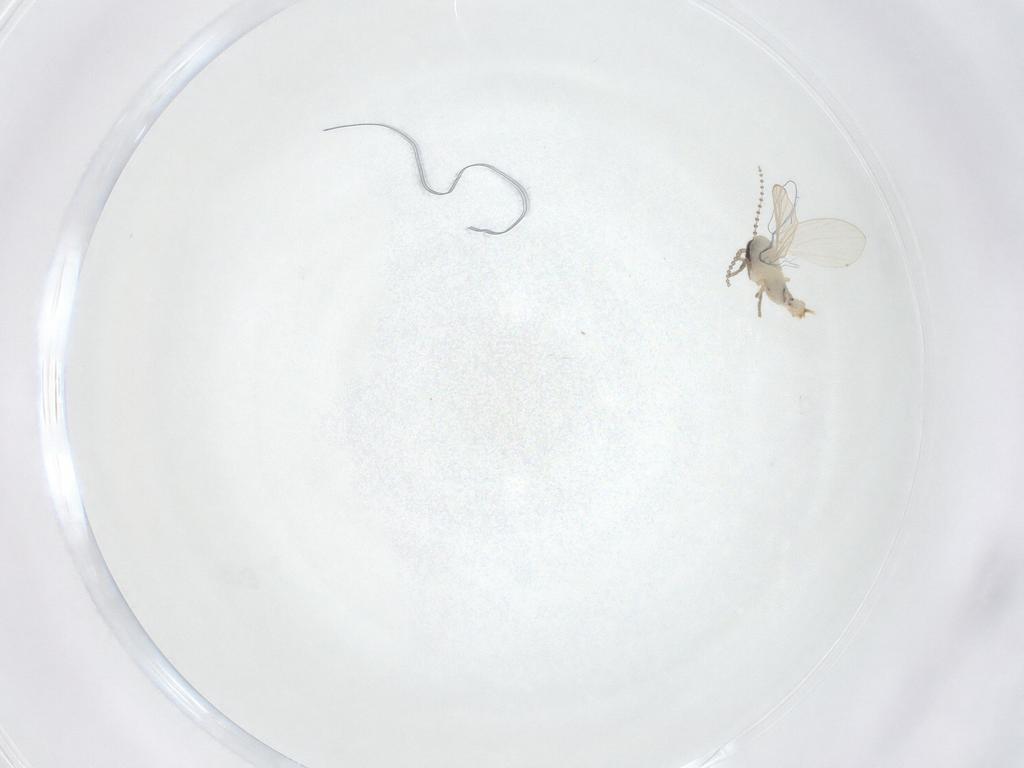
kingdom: Animalia
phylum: Arthropoda
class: Insecta
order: Diptera
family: Psychodidae
